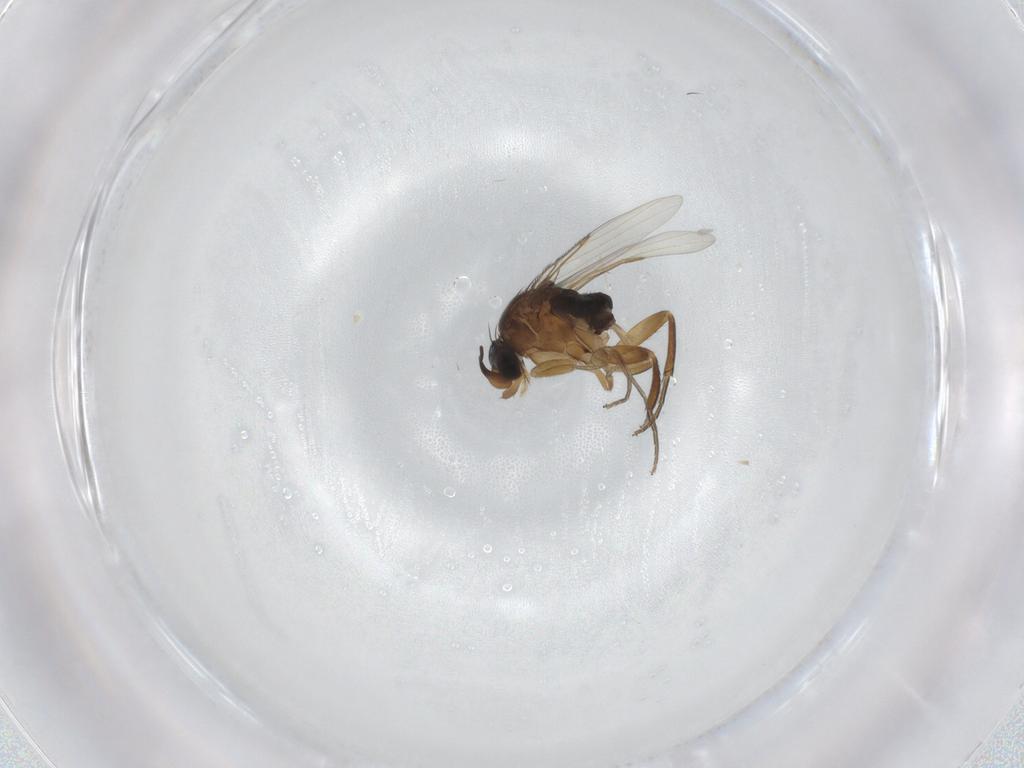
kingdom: Animalia
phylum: Arthropoda
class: Insecta
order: Diptera
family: Phoridae
